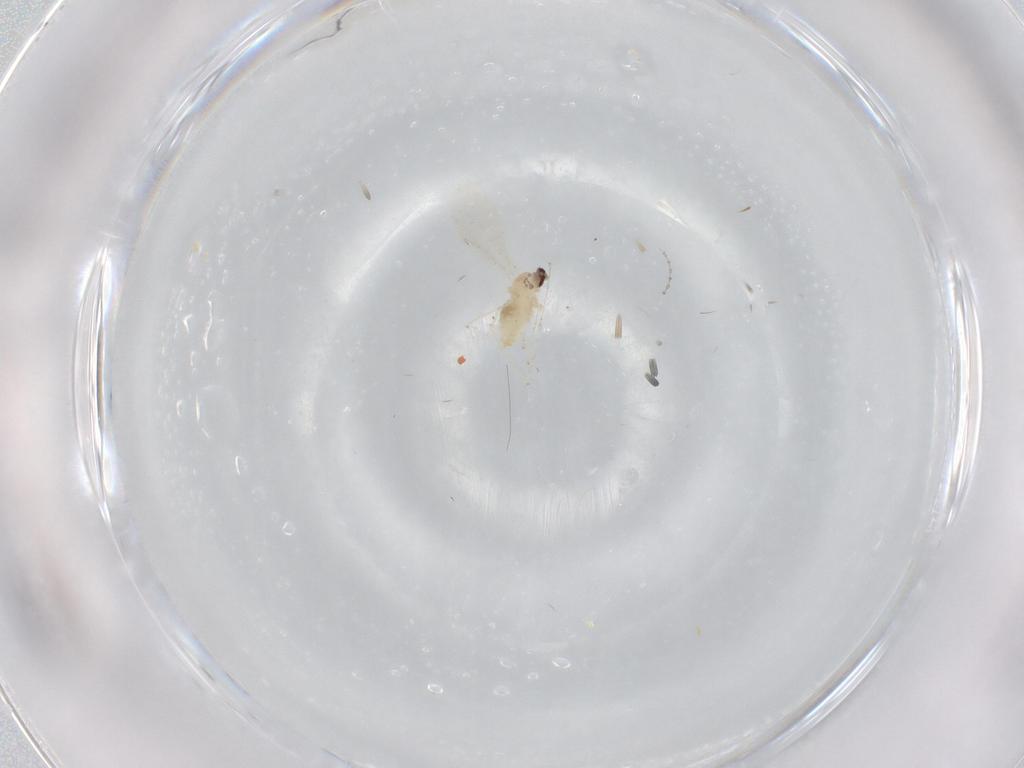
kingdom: Animalia
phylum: Arthropoda
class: Insecta
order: Diptera
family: Cecidomyiidae
